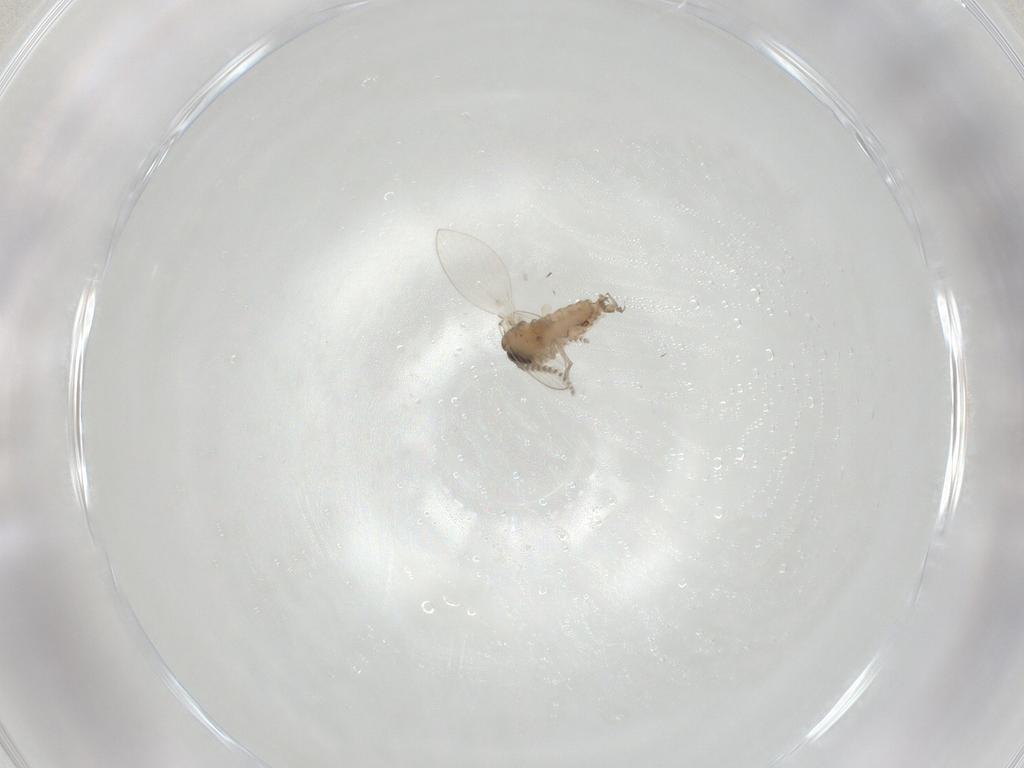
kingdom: Animalia
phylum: Arthropoda
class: Insecta
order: Diptera
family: Psychodidae
